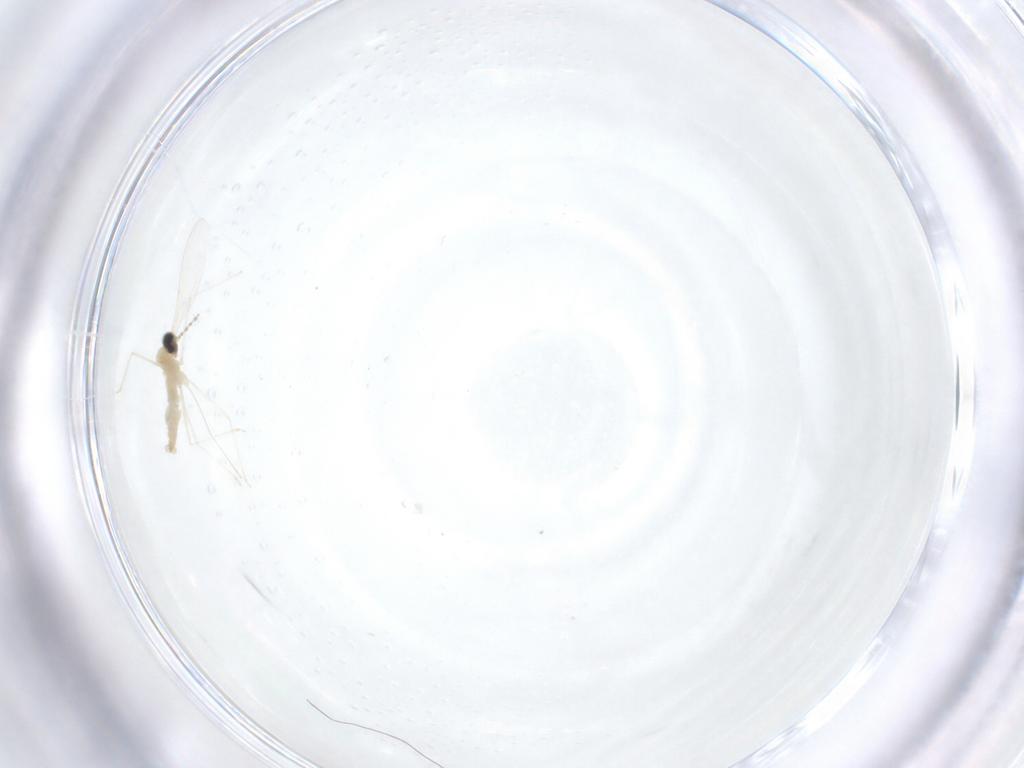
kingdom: Animalia
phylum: Arthropoda
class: Insecta
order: Diptera
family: Cecidomyiidae
